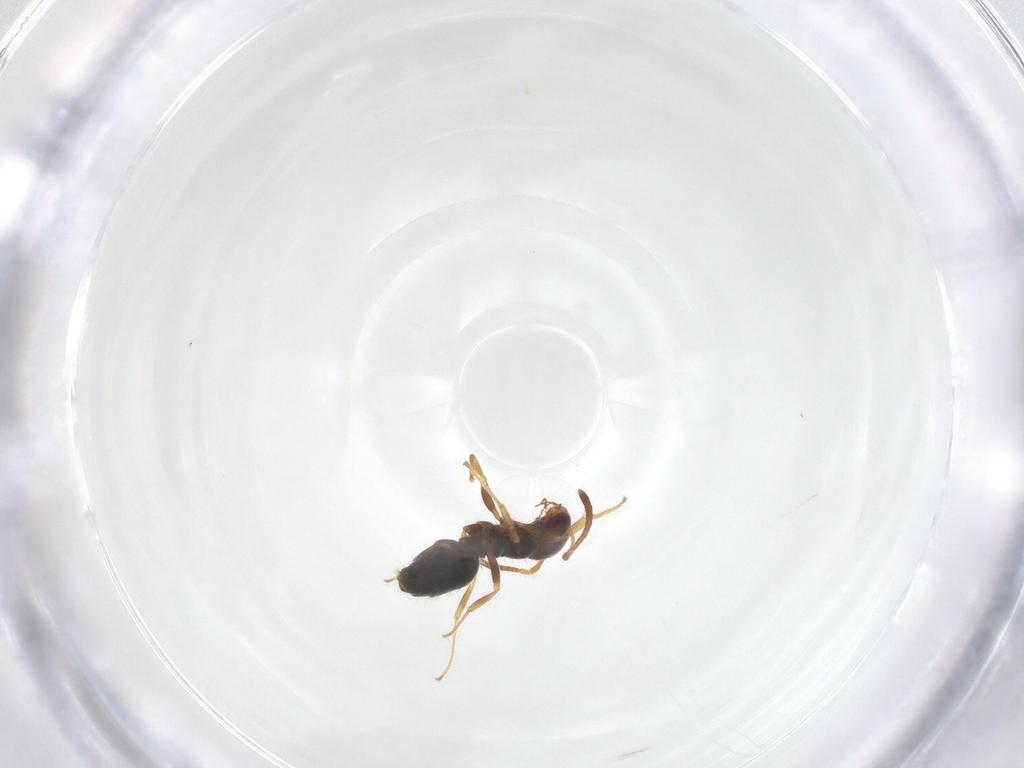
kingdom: Animalia
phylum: Arthropoda
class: Insecta
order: Hymenoptera
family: Formicidae
